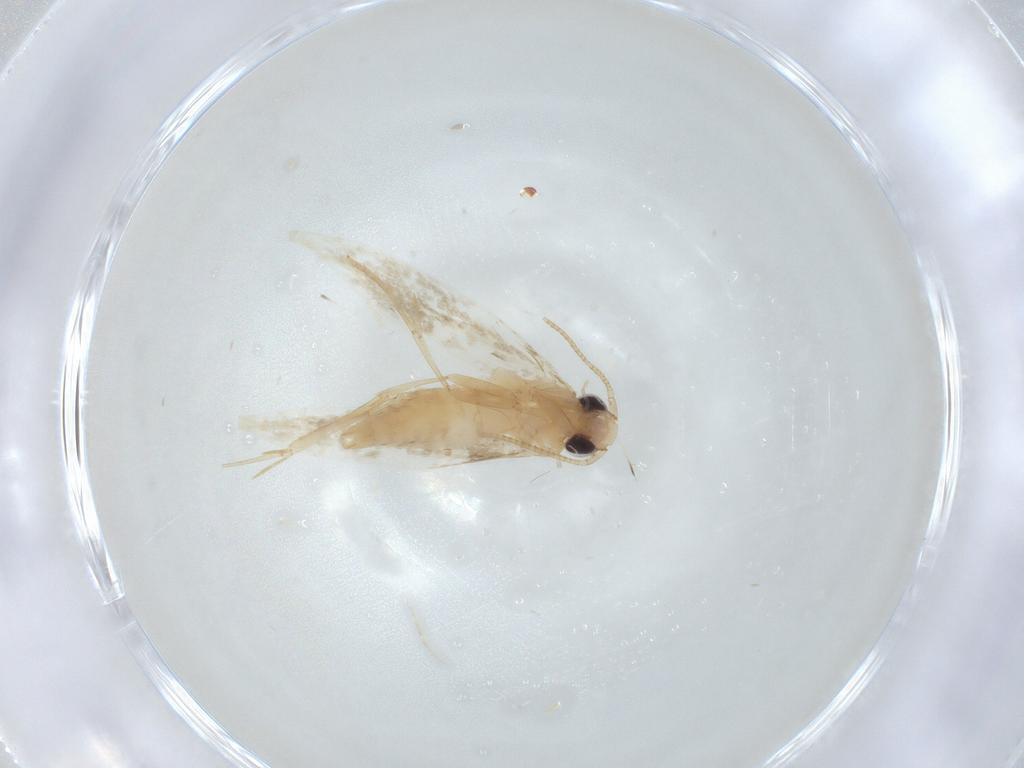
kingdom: Animalia
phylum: Arthropoda
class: Insecta
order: Lepidoptera
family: Tineidae
